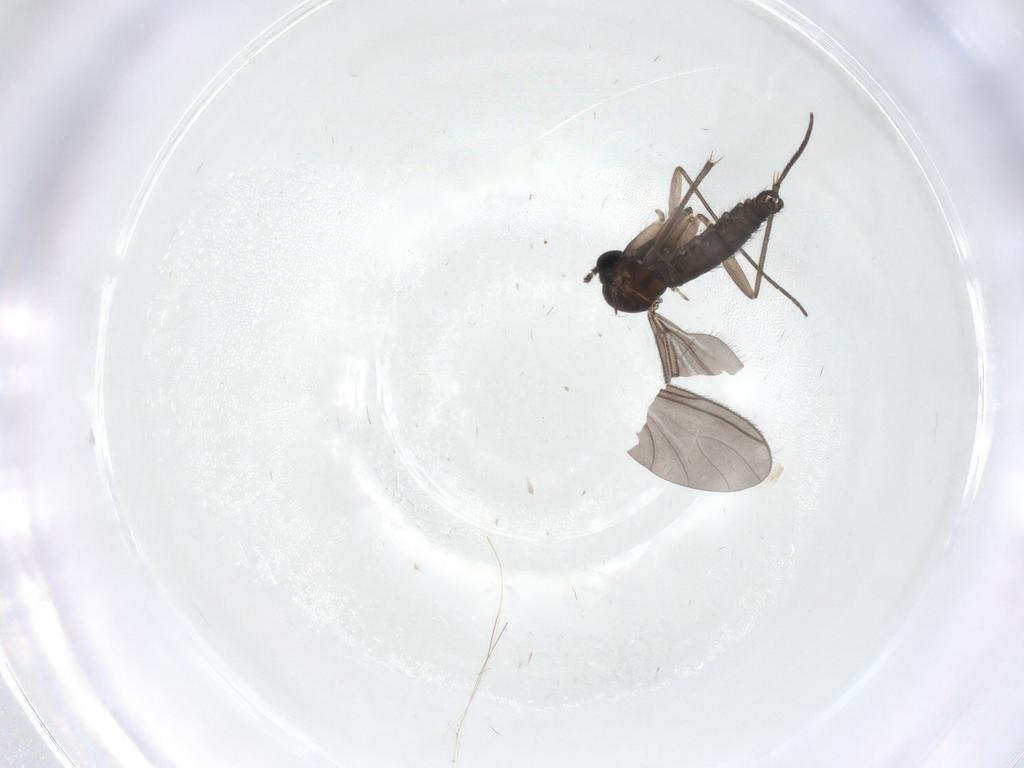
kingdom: Animalia
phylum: Arthropoda
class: Insecta
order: Diptera
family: Sciaridae
